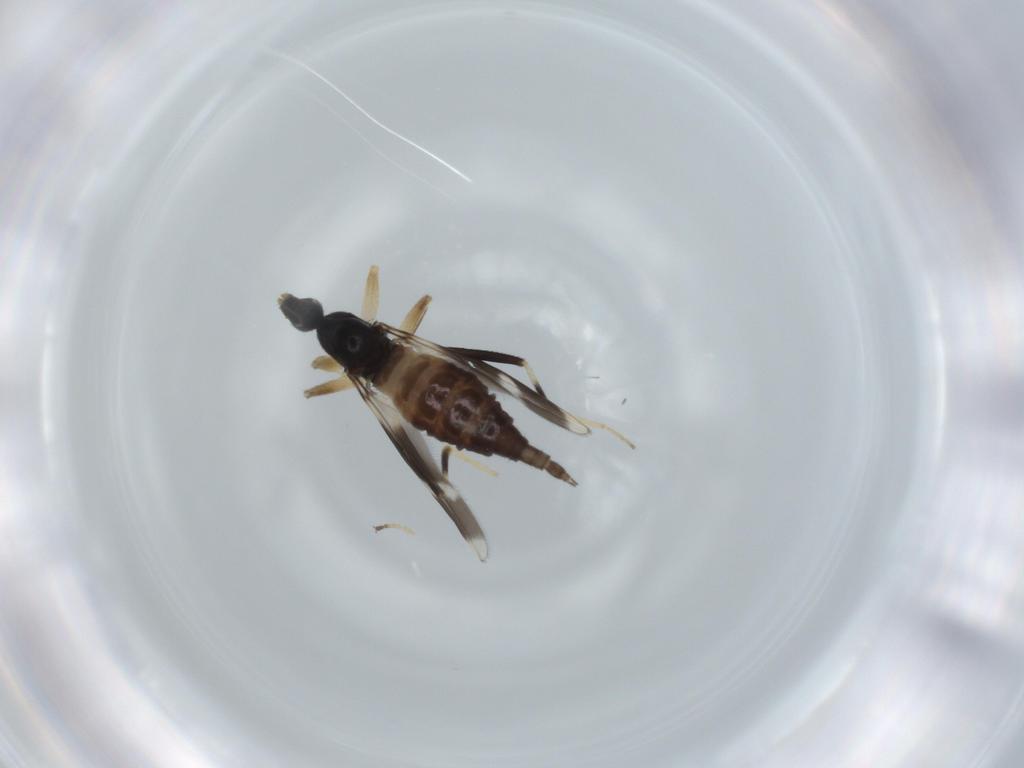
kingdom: Animalia
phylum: Arthropoda
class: Insecta
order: Diptera
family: Hybotidae
